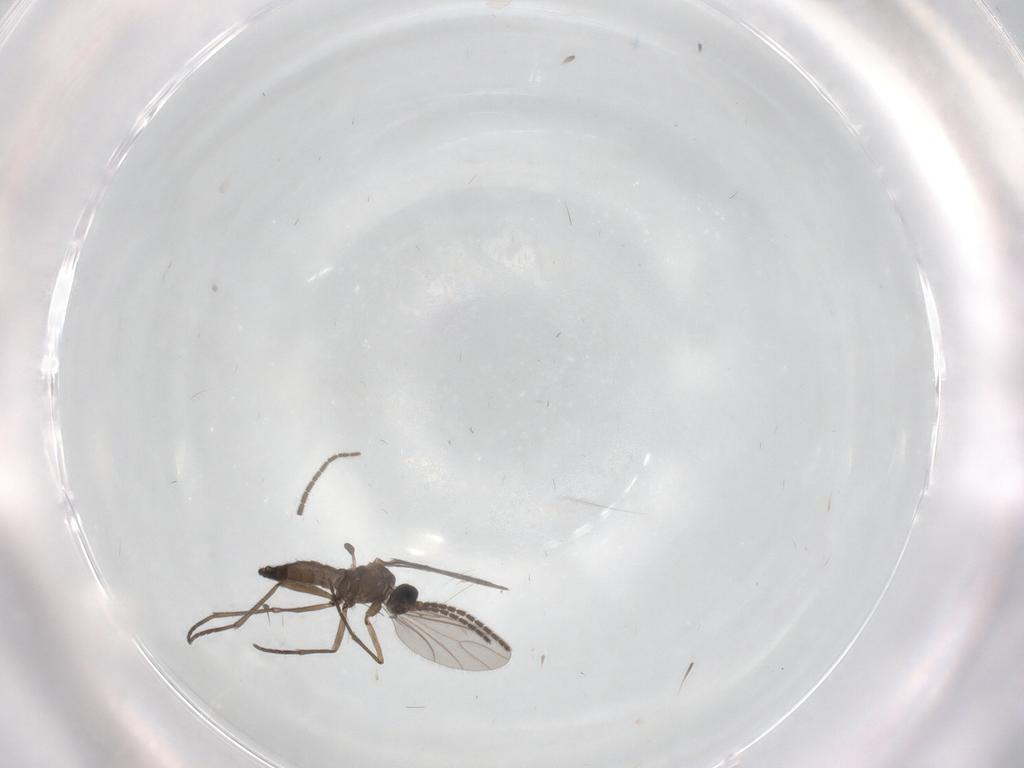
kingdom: Animalia
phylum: Arthropoda
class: Insecta
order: Diptera
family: Sciaridae
